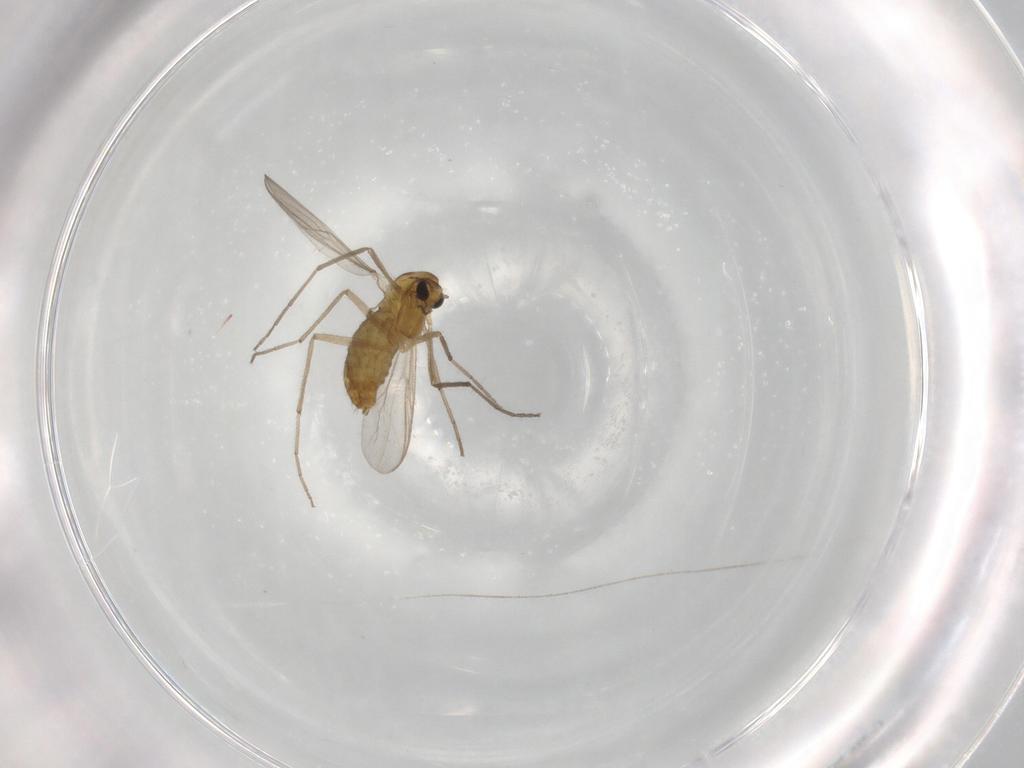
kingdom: Animalia
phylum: Arthropoda
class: Insecta
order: Diptera
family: Chironomidae
